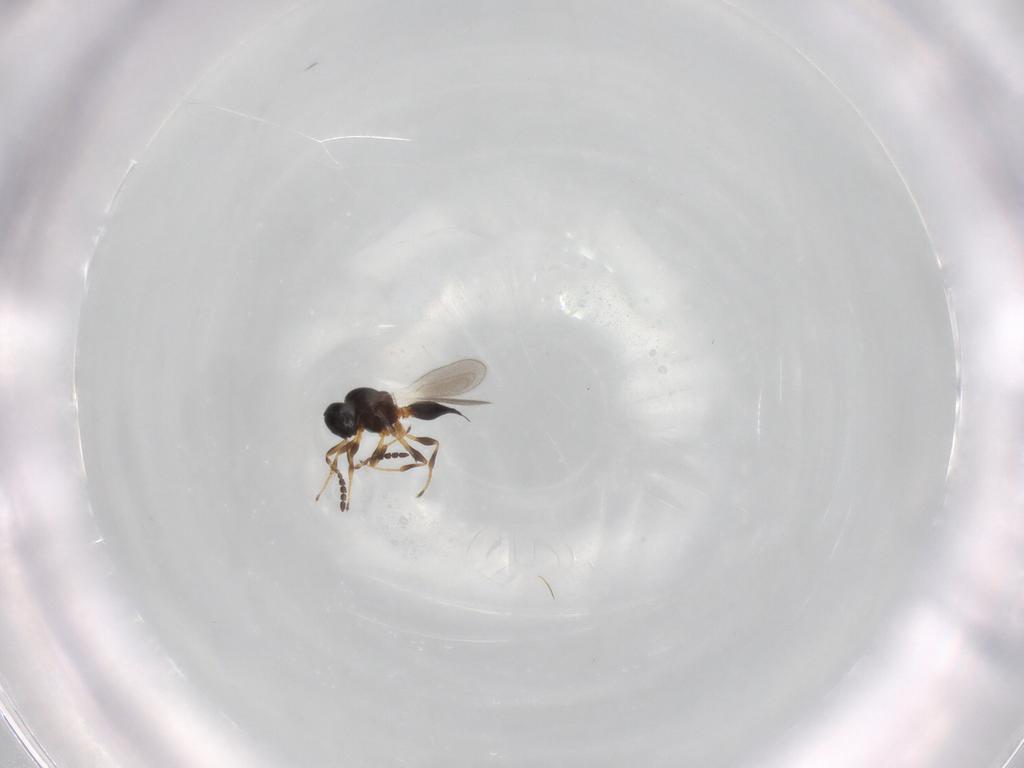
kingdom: Animalia
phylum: Arthropoda
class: Insecta
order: Hymenoptera
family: Platygastridae
